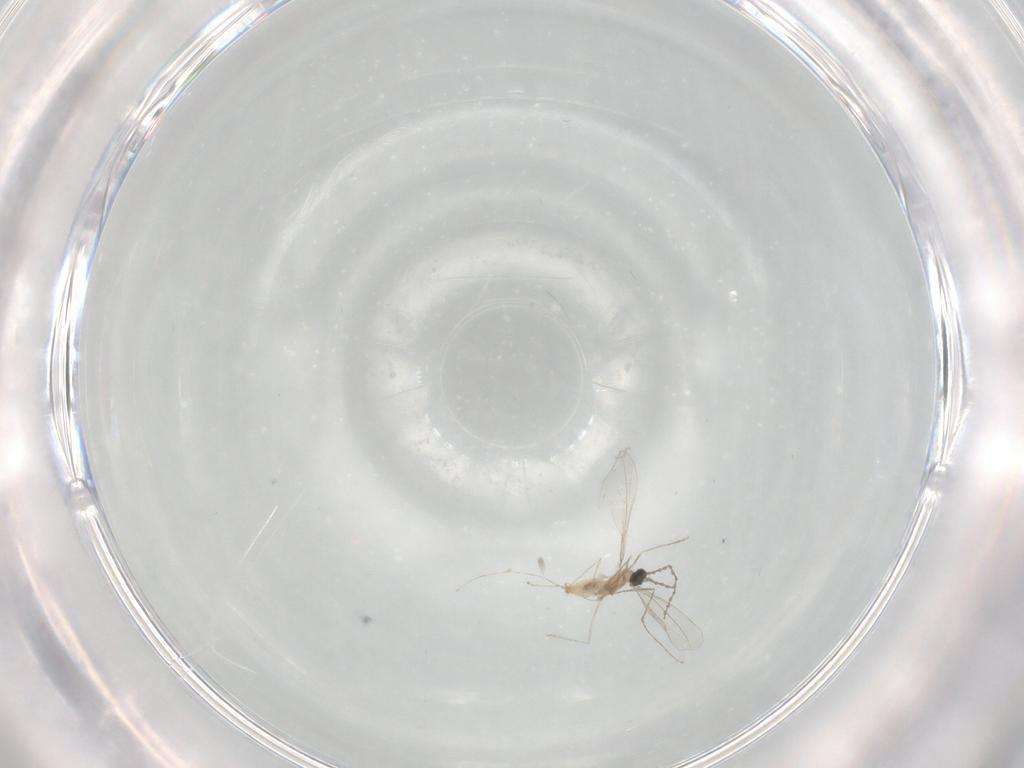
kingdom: Animalia
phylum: Arthropoda
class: Insecta
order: Diptera
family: Cecidomyiidae
